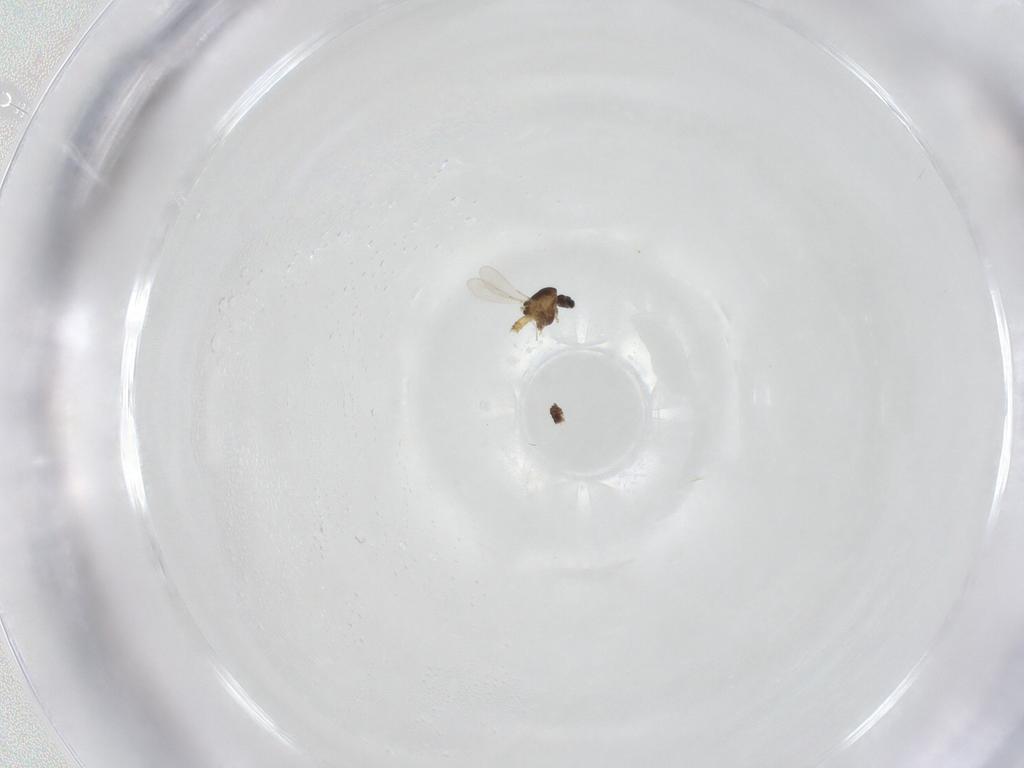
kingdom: Animalia
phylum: Arthropoda
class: Insecta
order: Diptera
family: Chironomidae
